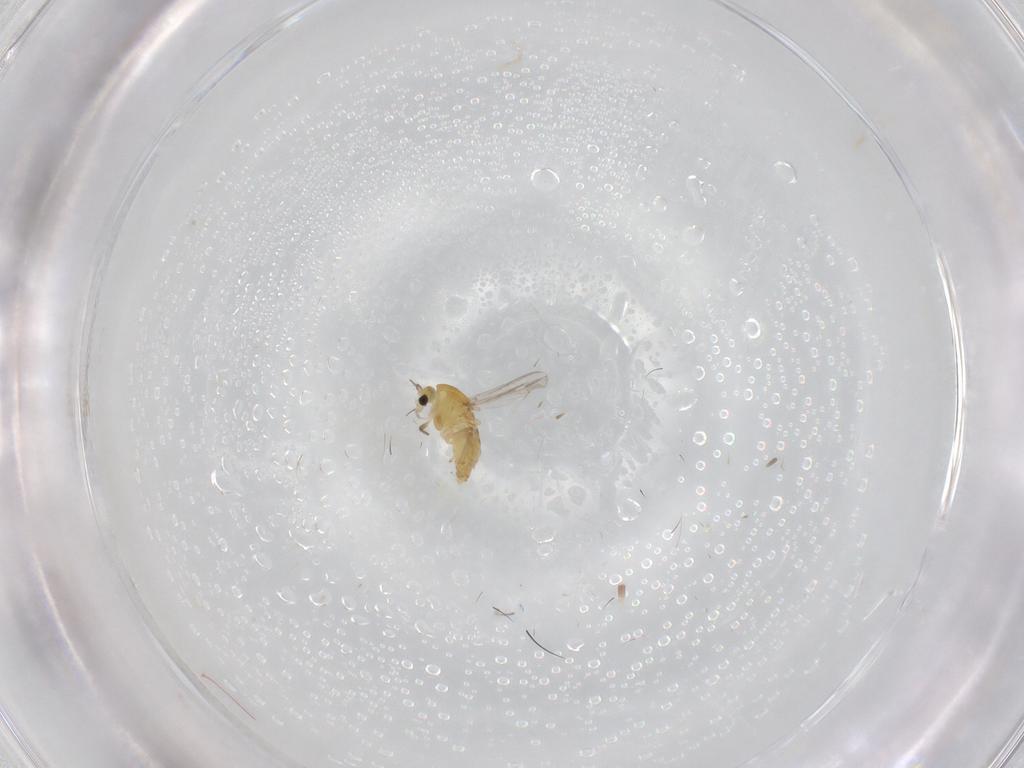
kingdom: Animalia
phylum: Arthropoda
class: Insecta
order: Diptera
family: Chironomidae
